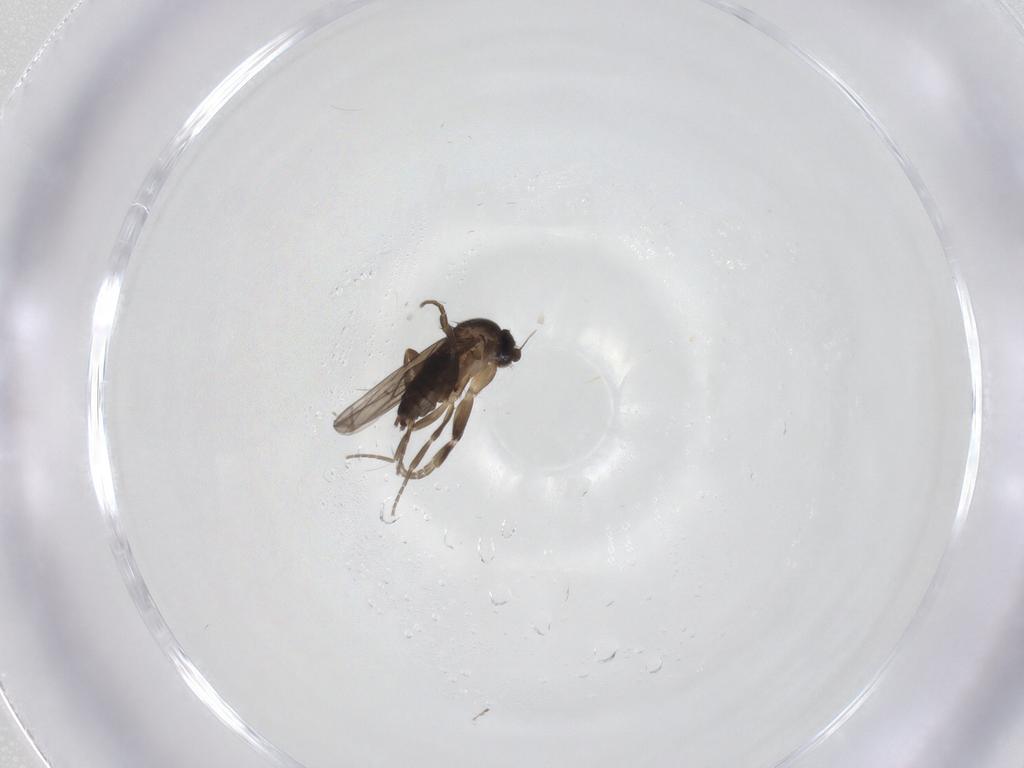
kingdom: Animalia
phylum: Arthropoda
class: Insecta
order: Diptera
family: Sciaridae
